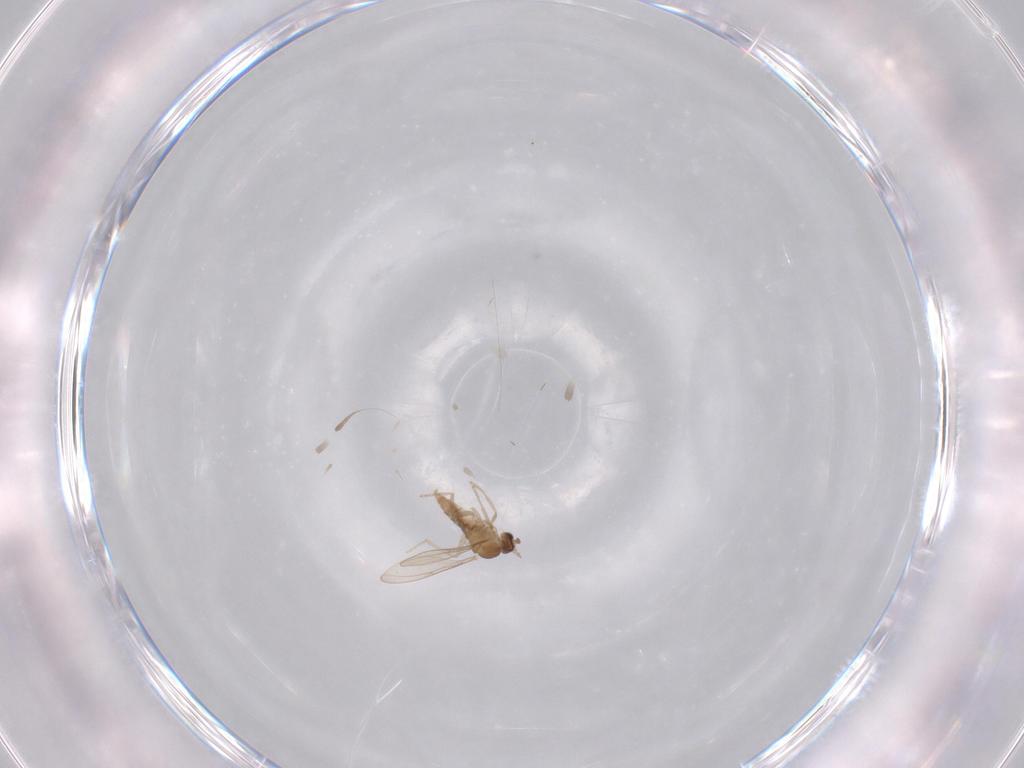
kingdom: Animalia
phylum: Arthropoda
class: Insecta
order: Diptera
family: Cecidomyiidae
